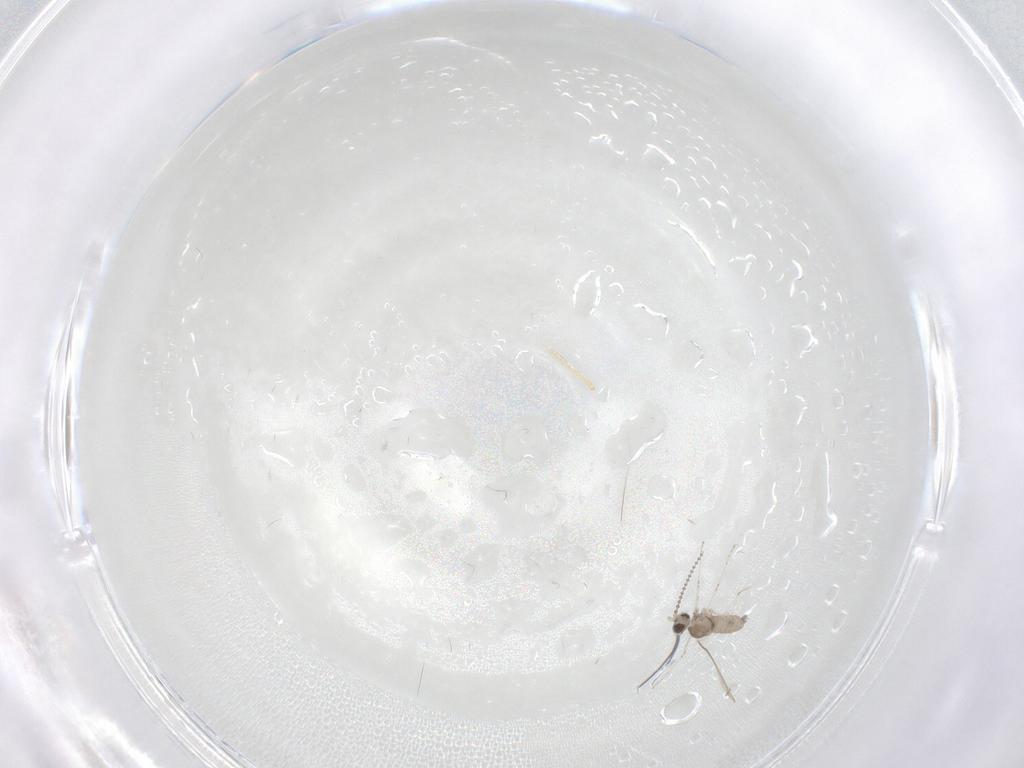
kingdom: Animalia
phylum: Arthropoda
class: Insecta
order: Diptera
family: Cecidomyiidae
